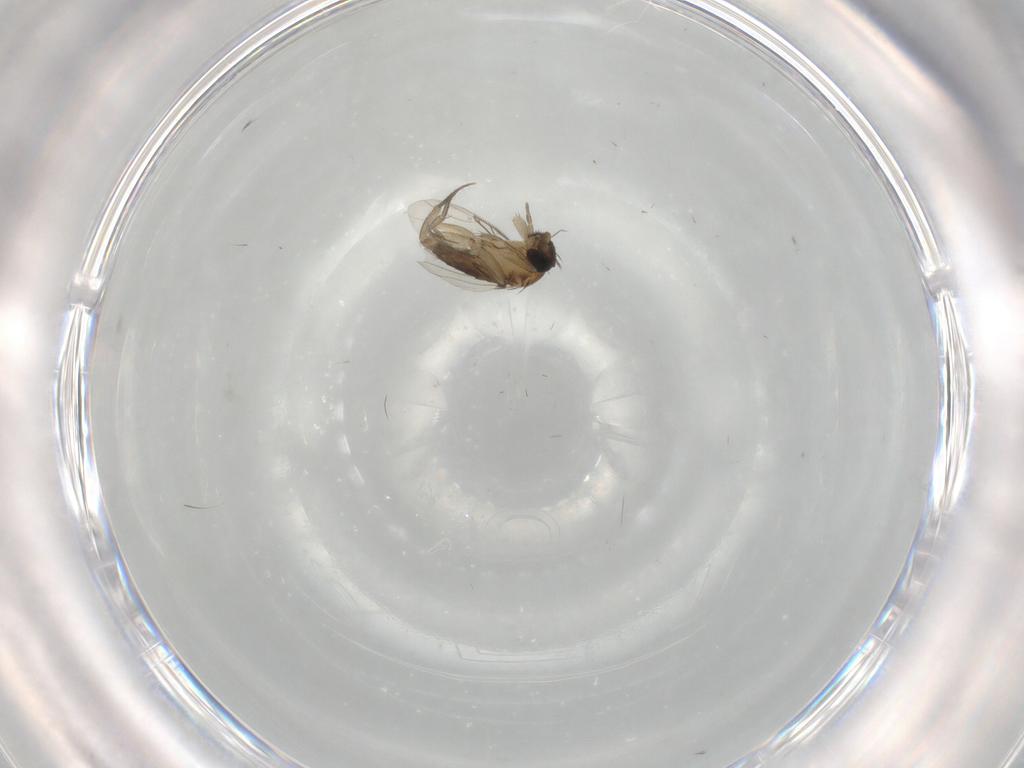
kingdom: Animalia
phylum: Arthropoda
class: Insecta
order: Diptera
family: Phoridae
